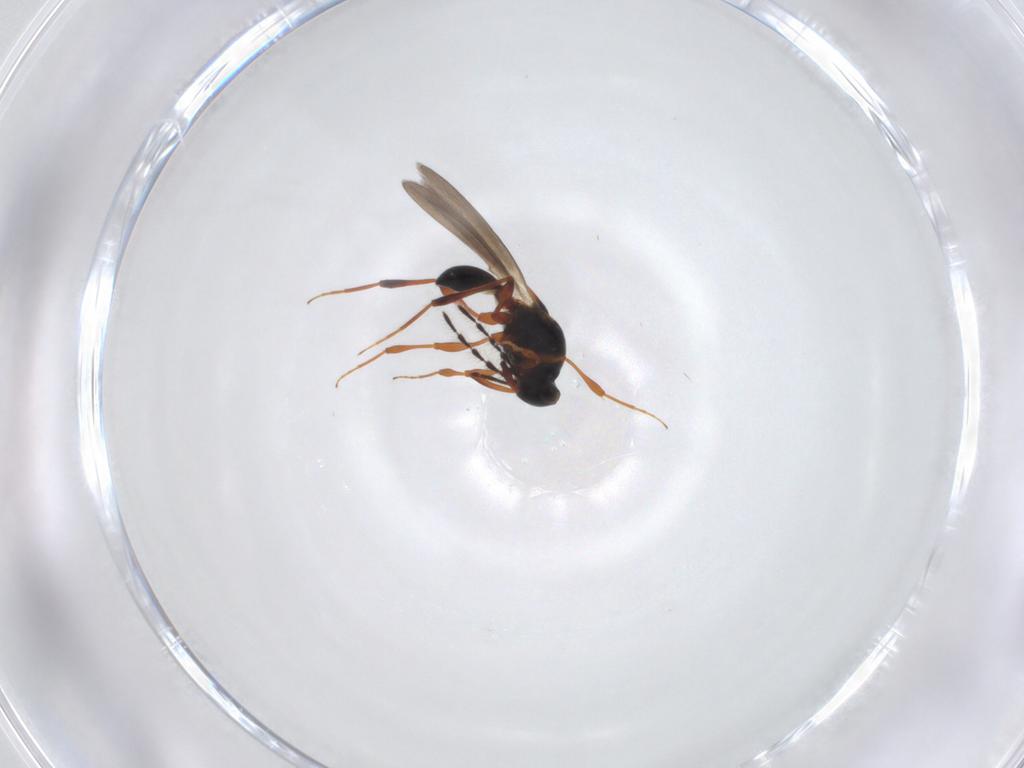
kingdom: Animalia
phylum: Arthropoda
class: Insecta
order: Hymenoptera
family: Platygastridae
